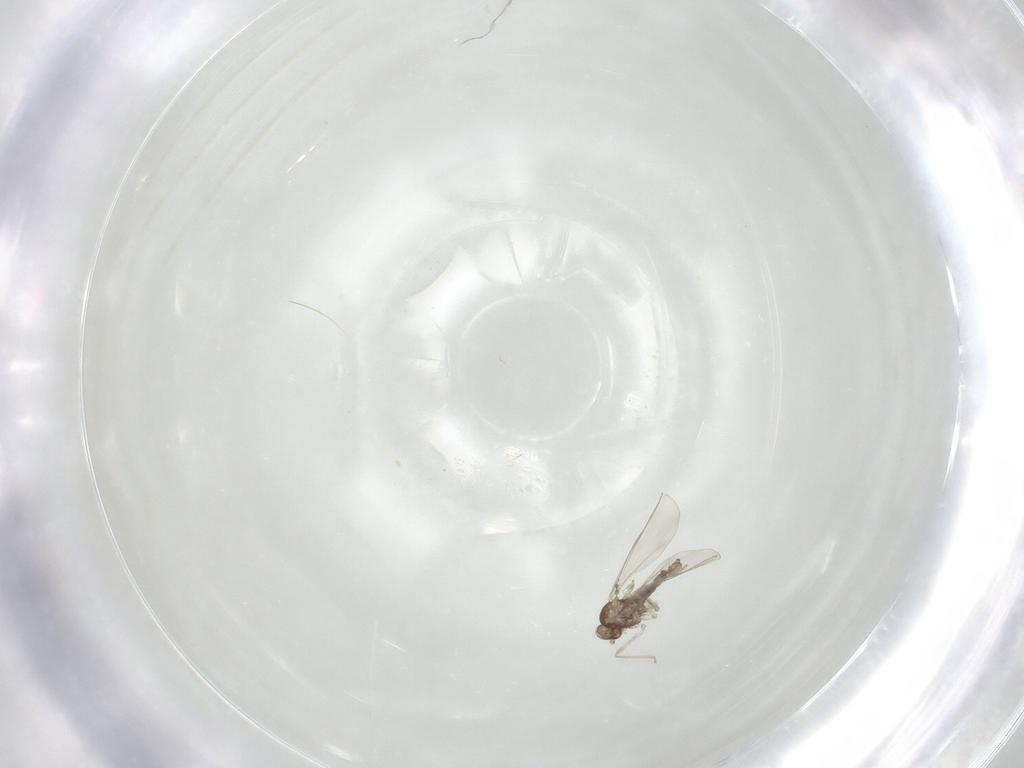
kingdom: Animalia
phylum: Arthropoda
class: Insecta
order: Diptera
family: Cecidomyiidae
